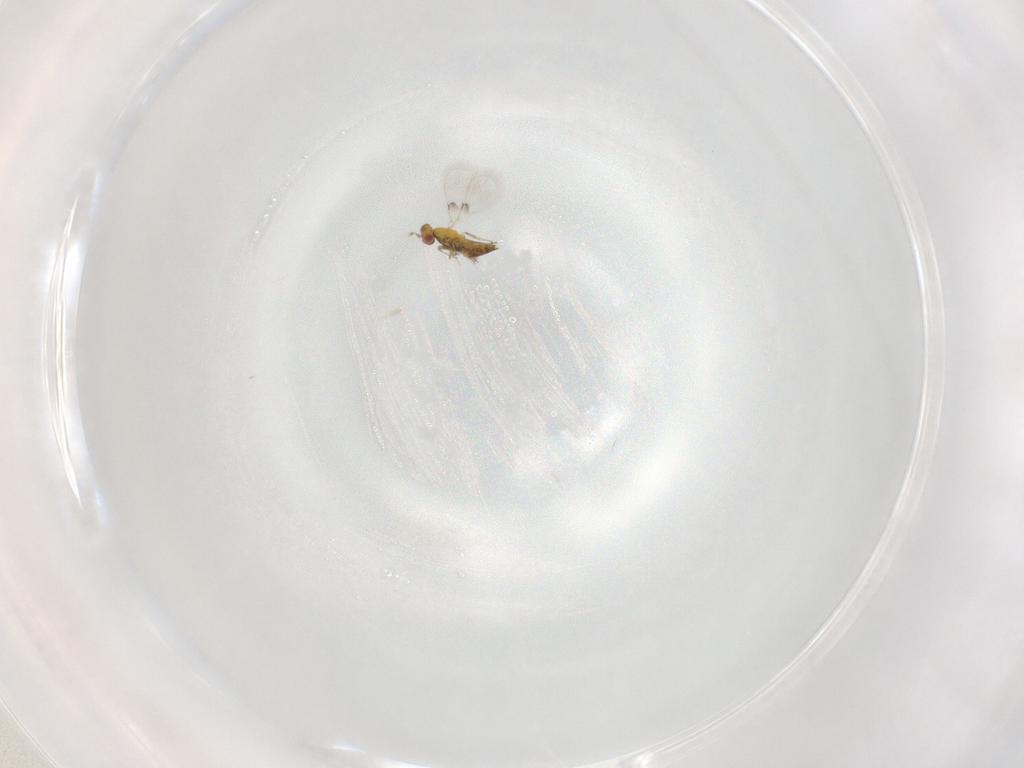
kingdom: Animalia
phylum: Arthropoda
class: Insecta
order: Hymenoptera
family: Trichogrammatidae
